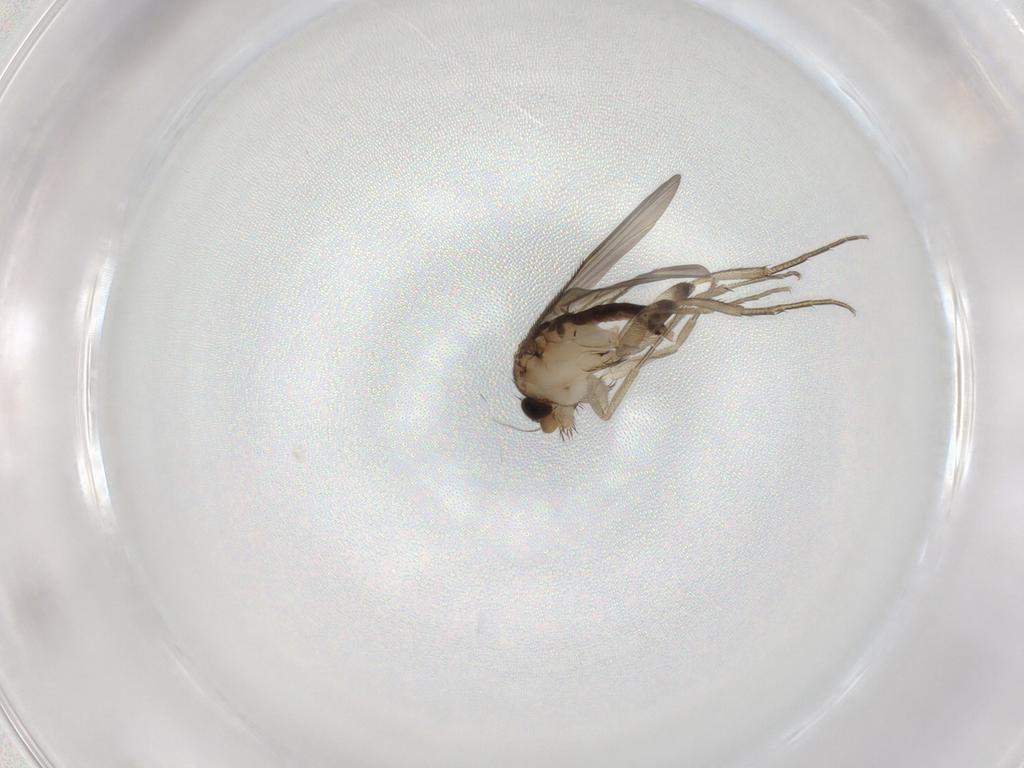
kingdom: Animalia
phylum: Arthropoda
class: Insecta
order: Diptera
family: Phoridae
